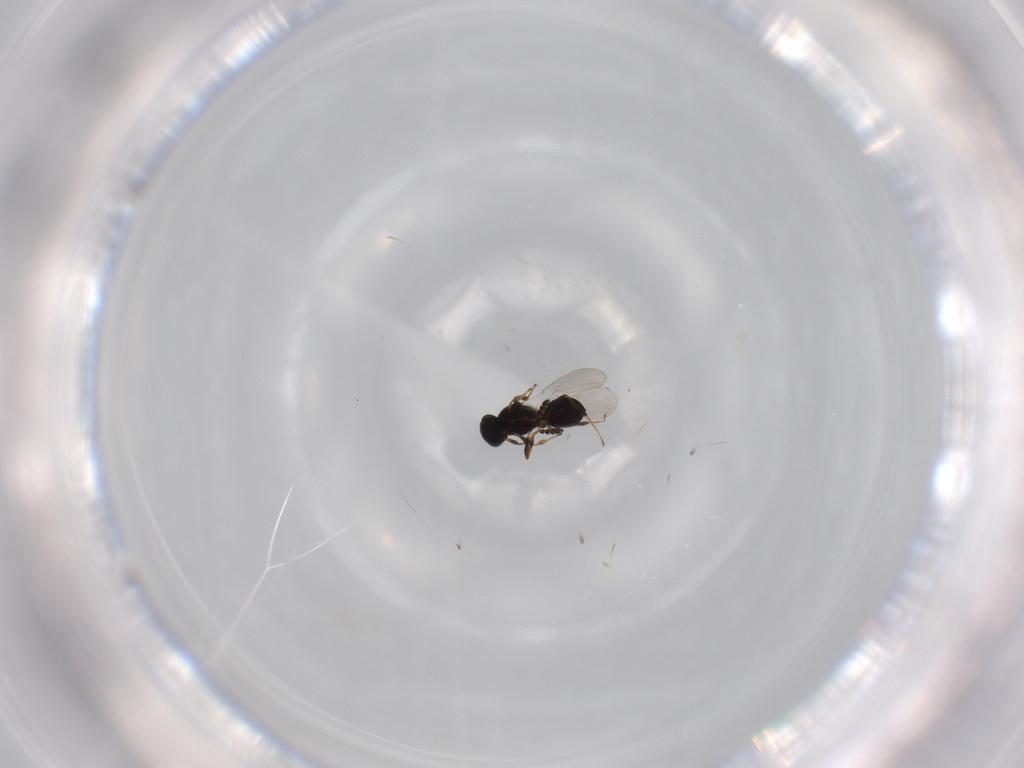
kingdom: Animalia
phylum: Arthropoda
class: Insecta
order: Hymenoptera
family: Platygastridae
